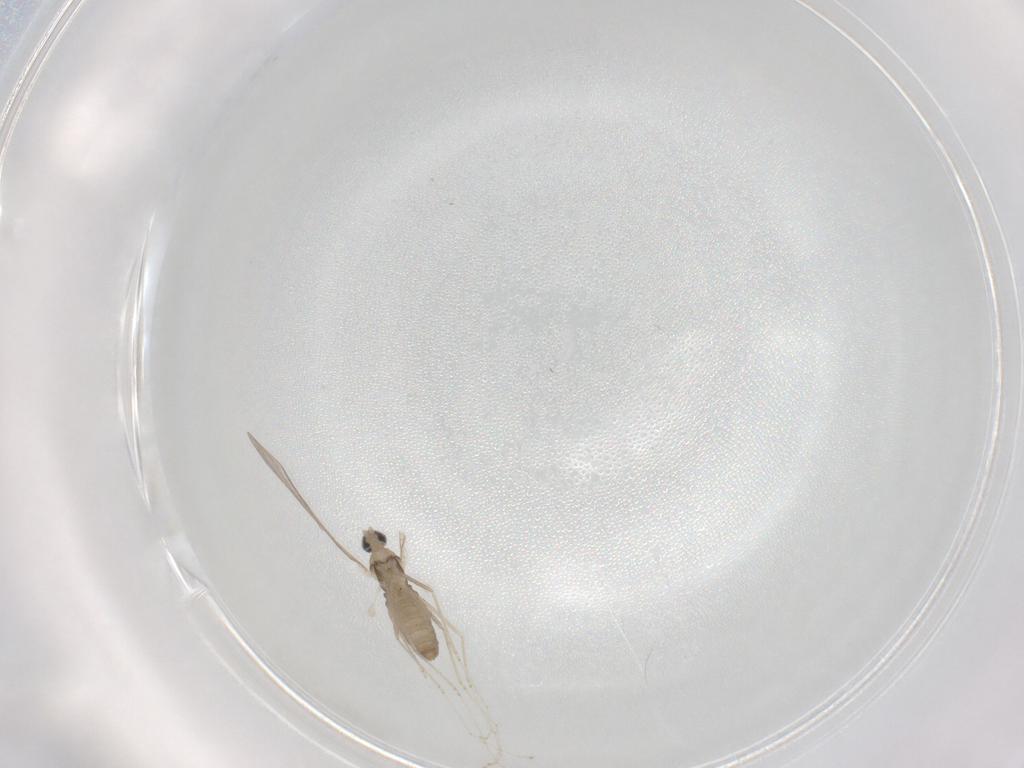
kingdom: Animalia
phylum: Arthropoda
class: Insecta
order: Diptera
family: Cecidomyiidae
